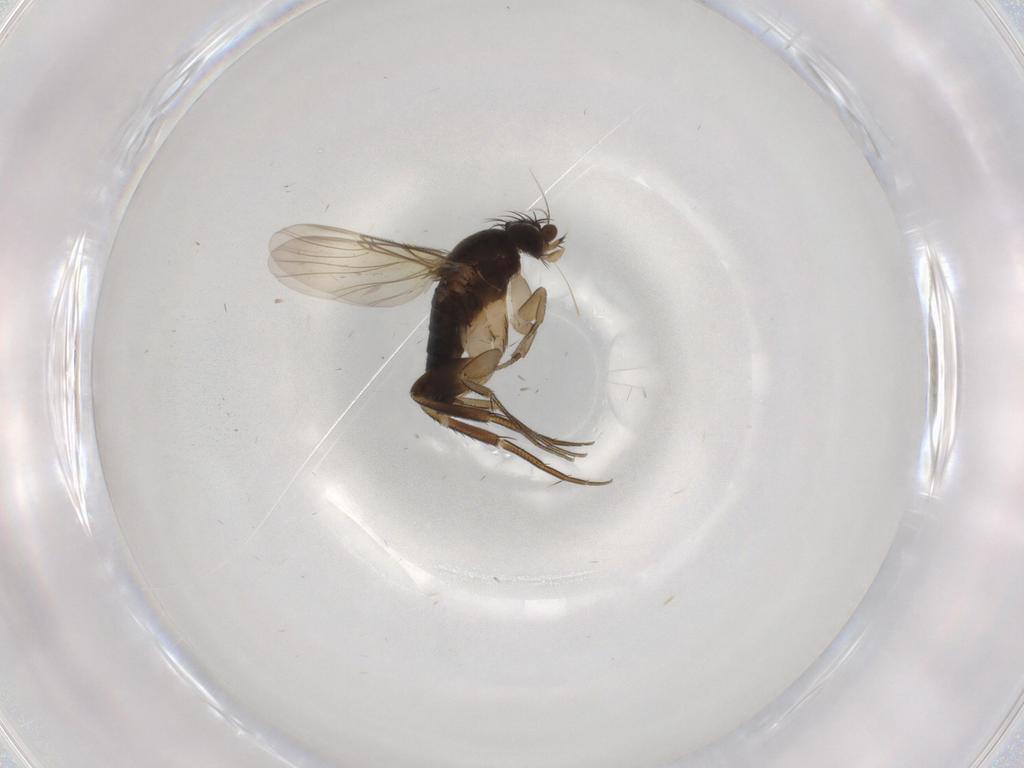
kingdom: Animalia
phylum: Arthropoda
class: Insecta
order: Diptera
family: Phoridae
